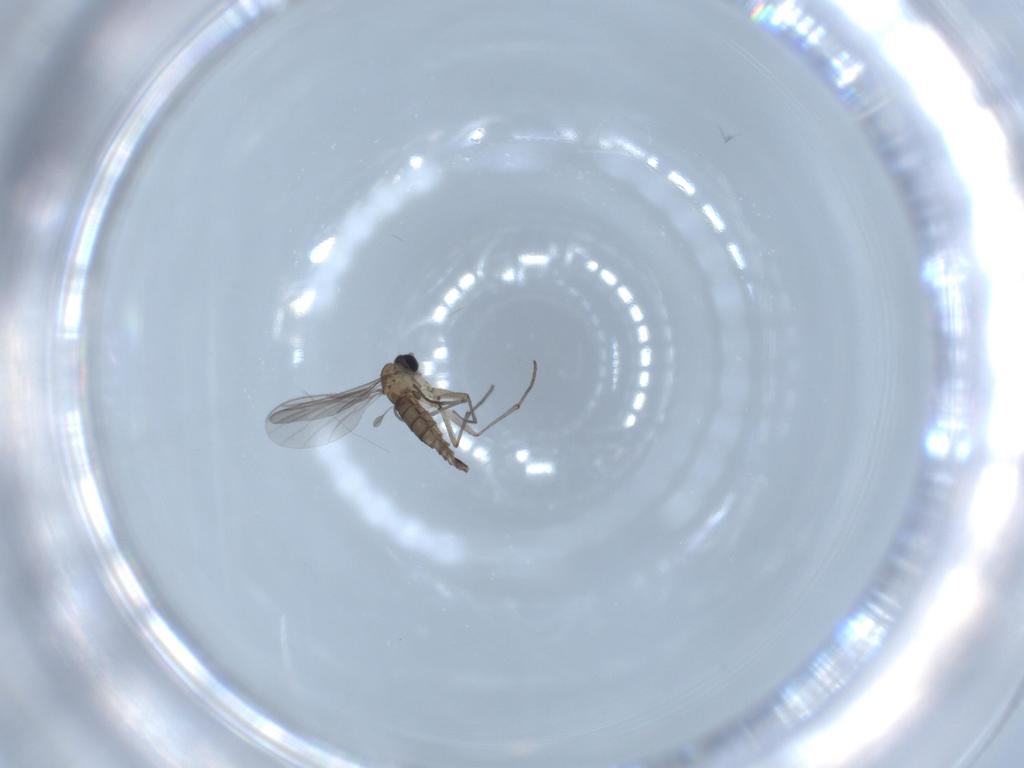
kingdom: Animalia
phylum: Arthropoda
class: Insecta
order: Diptera
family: Sciaridae
